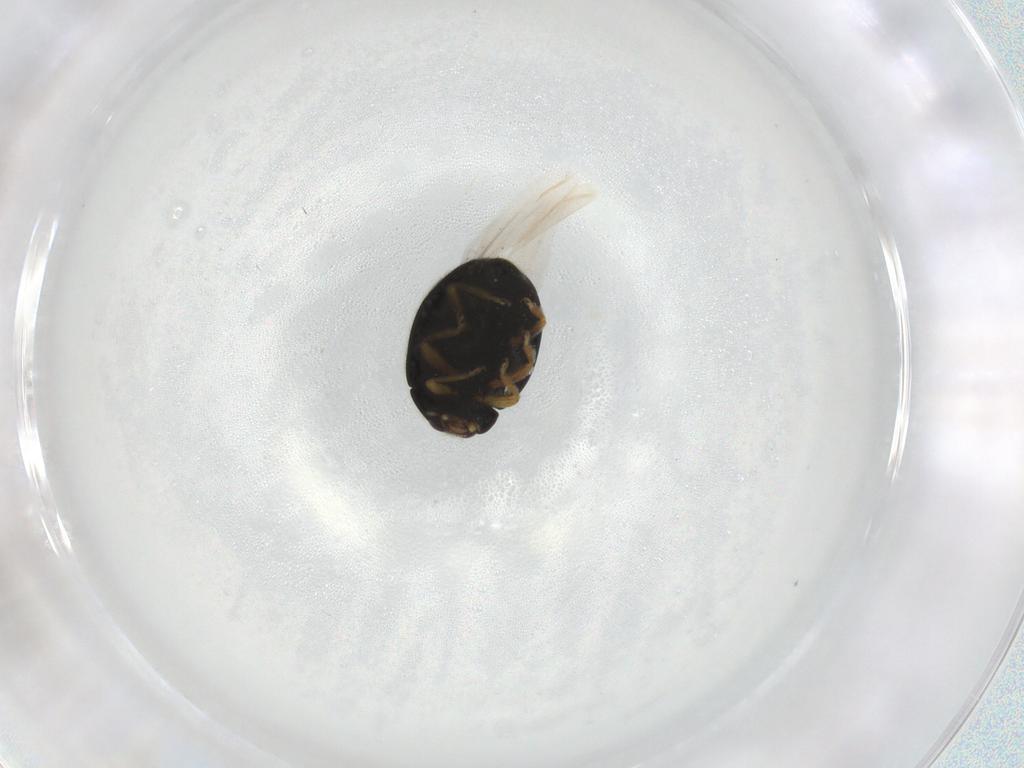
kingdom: Animalia
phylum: Arthropoda
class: Insecta
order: Coleoptera
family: Coccinellidae
